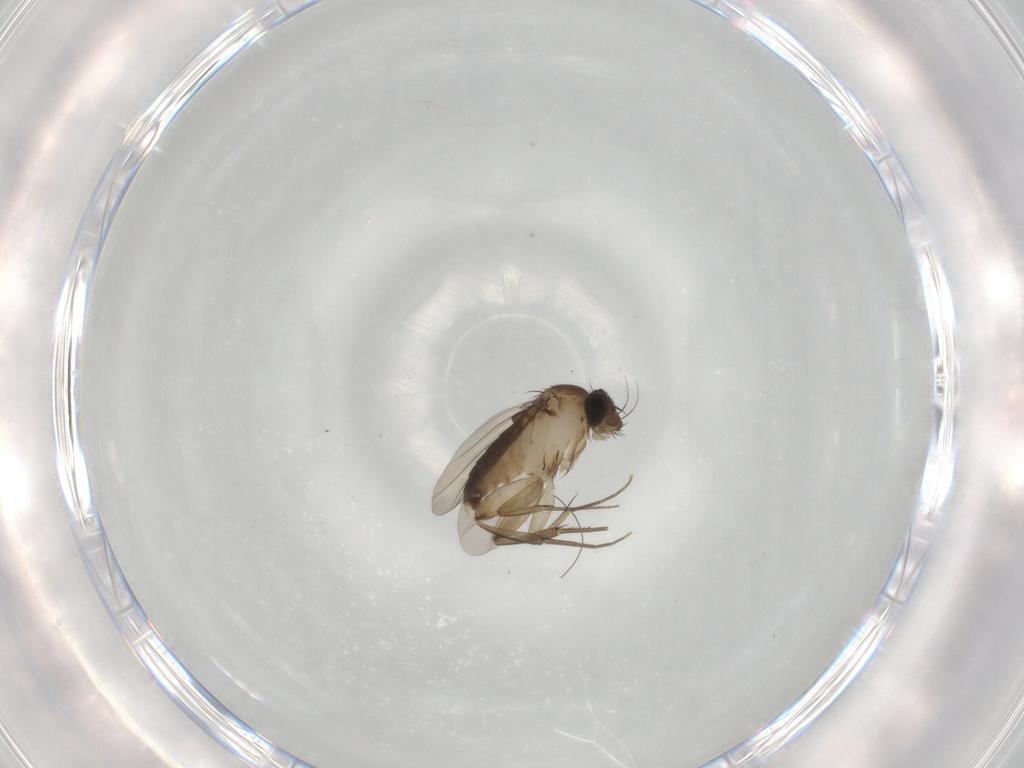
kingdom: Animalia
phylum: Arthropoda
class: Insecta
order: Diptera
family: Phoridae
